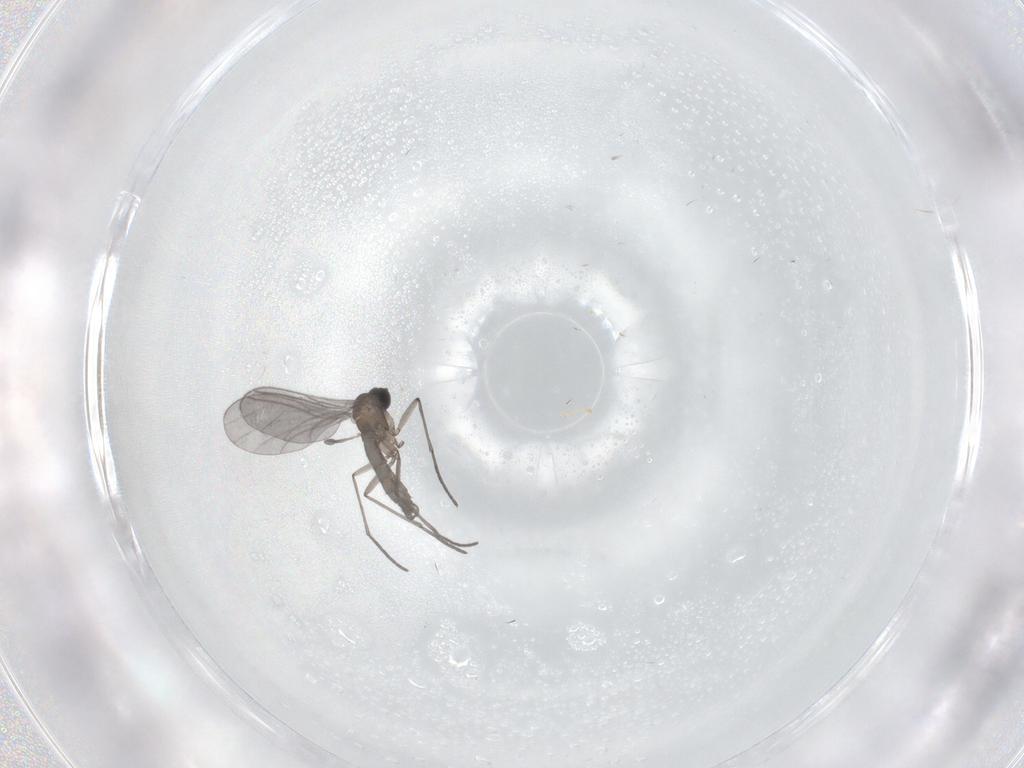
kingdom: Animalia
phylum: Arthropoda
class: Insecta
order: Diptera
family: Cecidomyiidae
